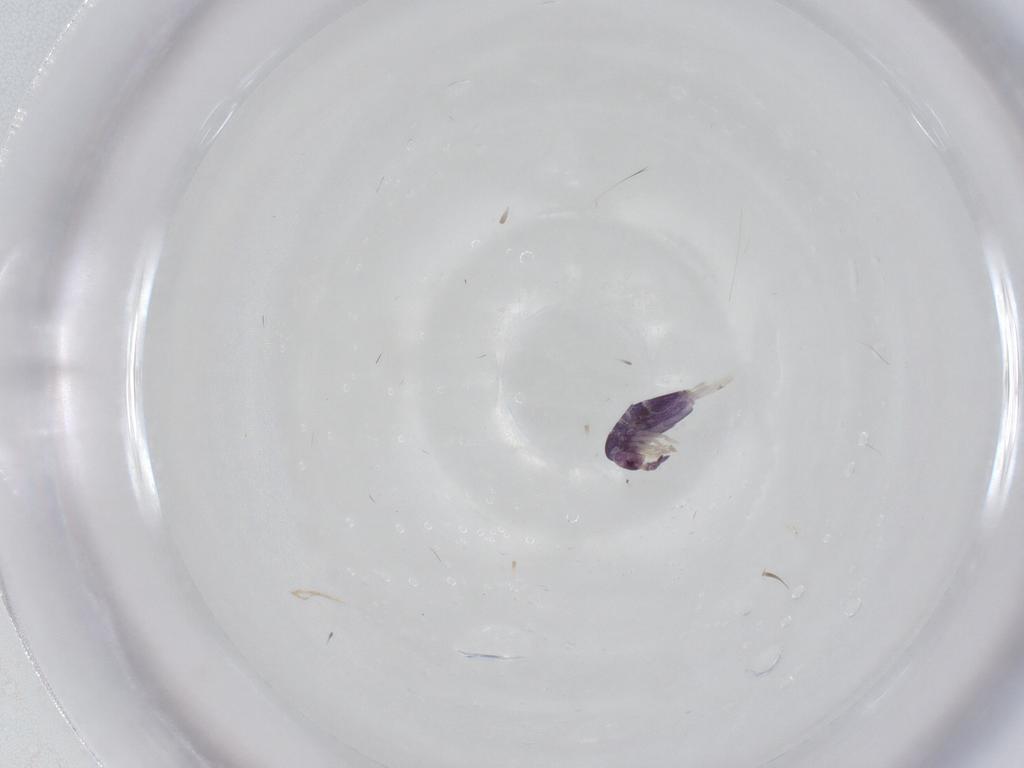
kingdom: Animalia
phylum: Arthropoda
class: Collembola
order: Entomobryomorpha
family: Entomobryidae
